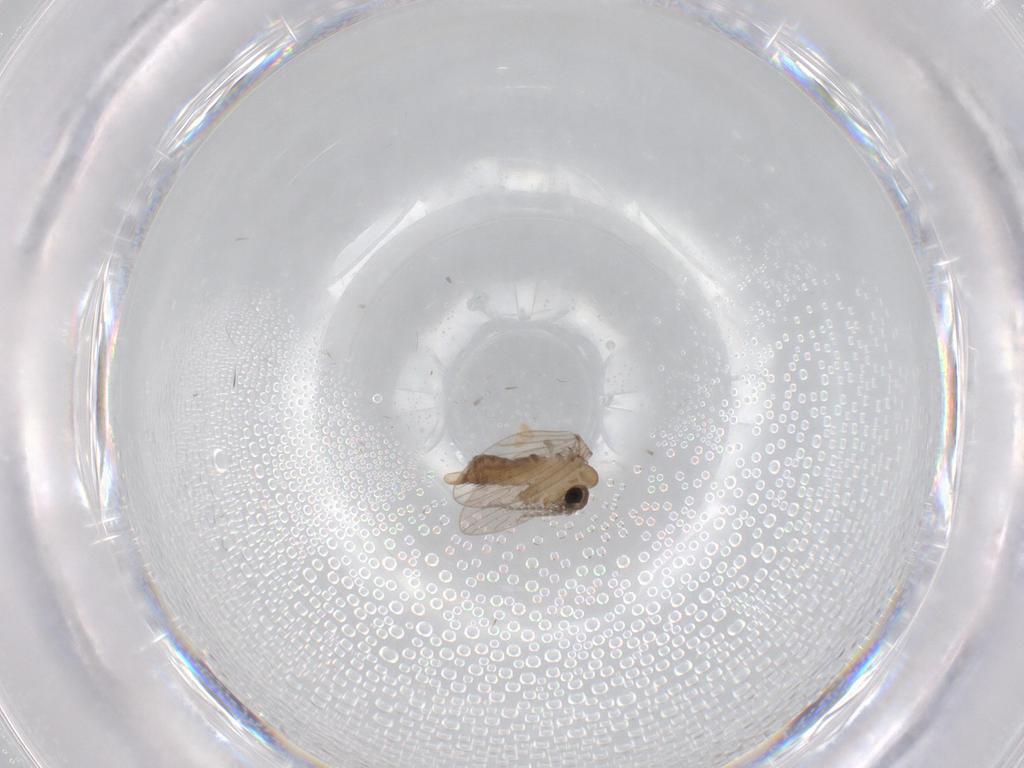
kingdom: Animalia
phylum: Arthropoda
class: Insecta
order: Diptera
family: Psychodidae
